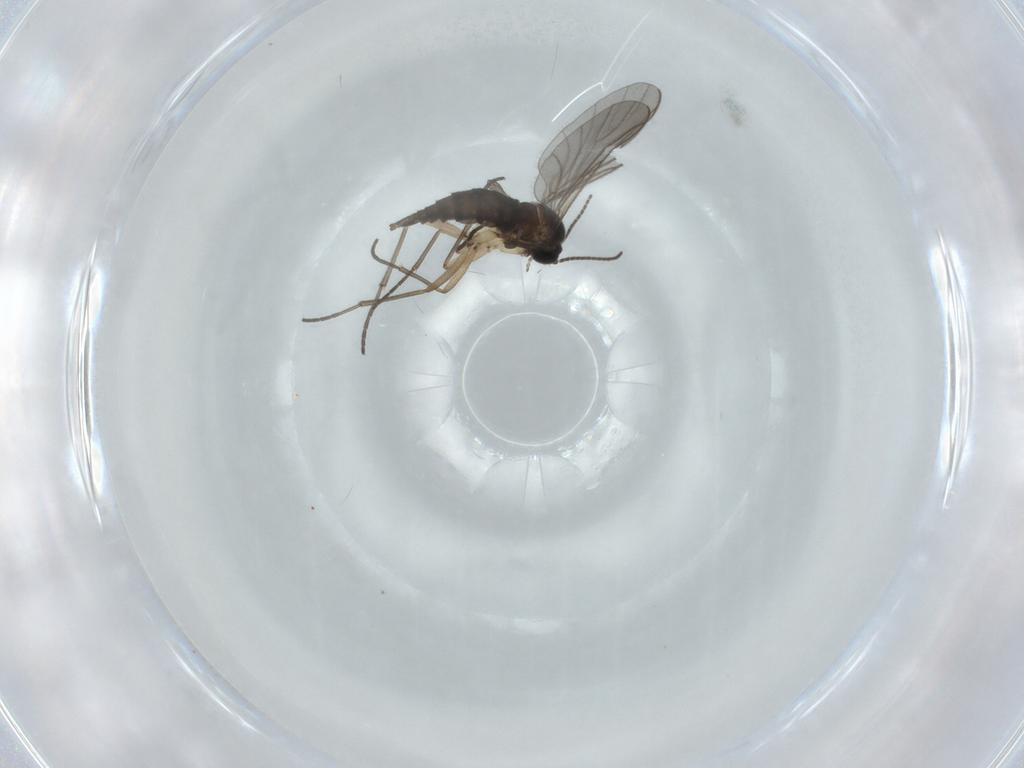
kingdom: Animalia
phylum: Arthropoda
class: Insecta
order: Diptera
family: Sciaridae
